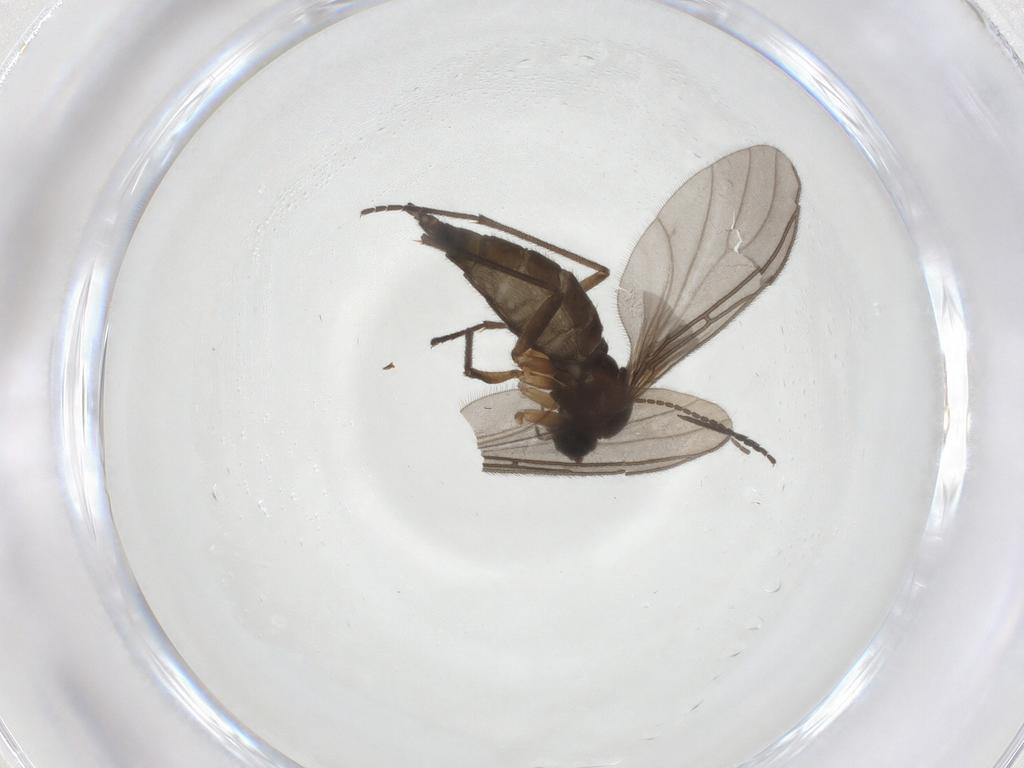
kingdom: Animalia
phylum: Arthropoda
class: Insecta
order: Diptera
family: Sciaridae
